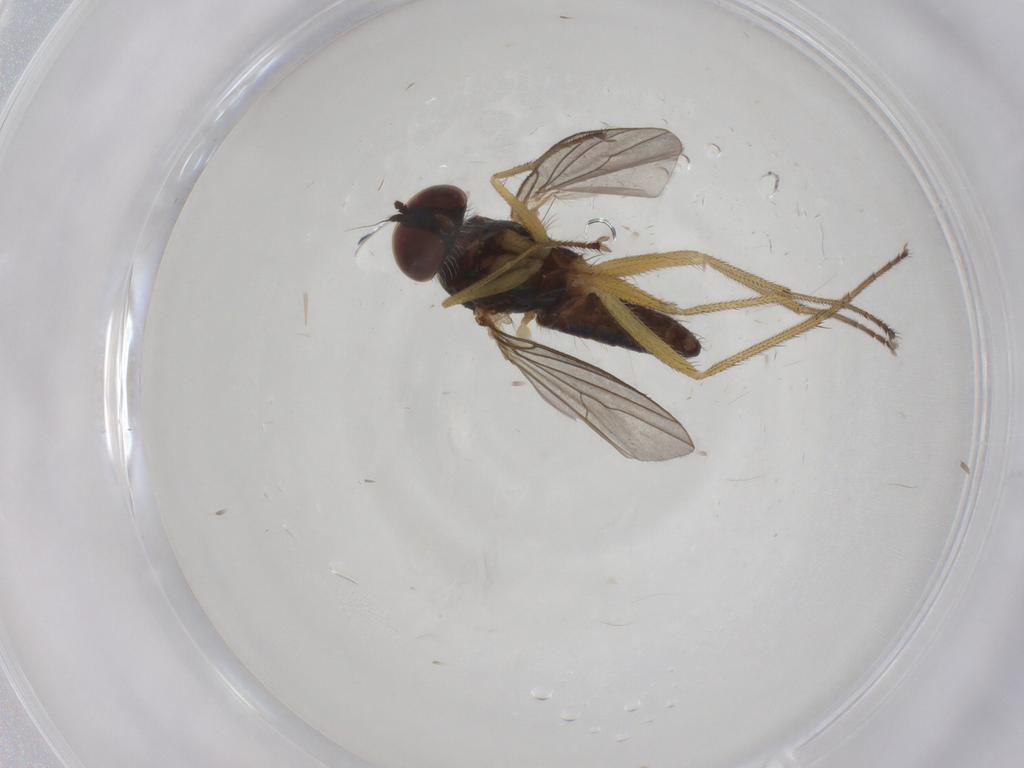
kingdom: Animalia
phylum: Arthropoda
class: Insecta
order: Diptera
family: Dolichopodidae
